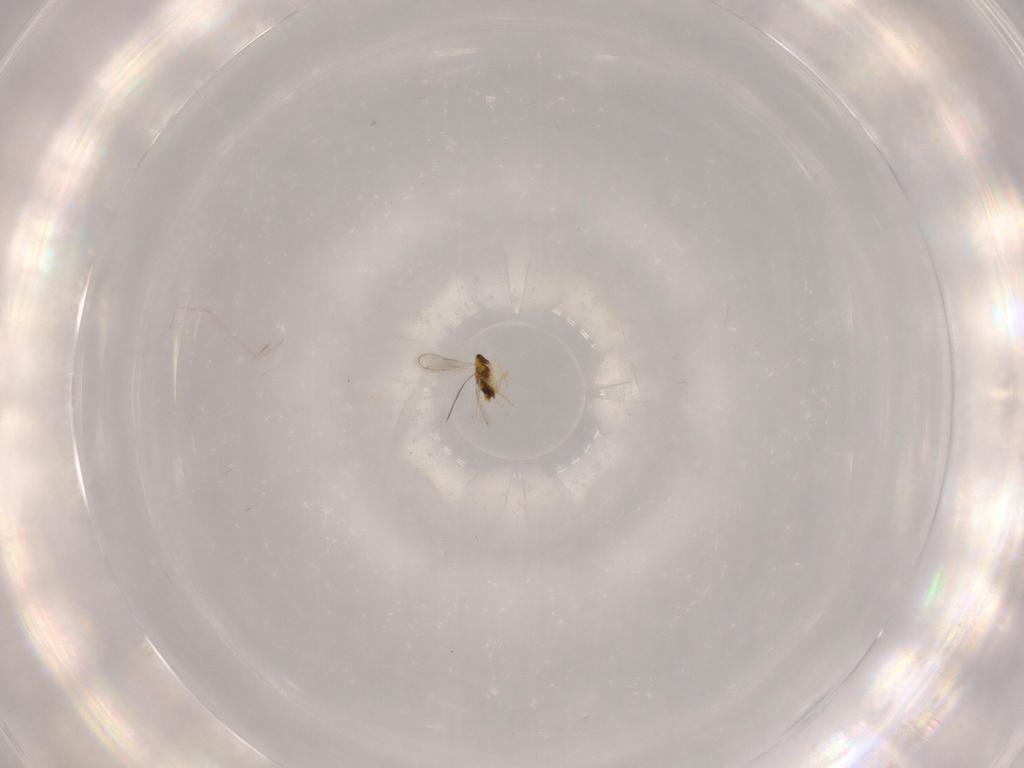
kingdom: Animalia
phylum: Arthropoda
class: Insecta
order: Hymenoptera
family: Aphelinidae
